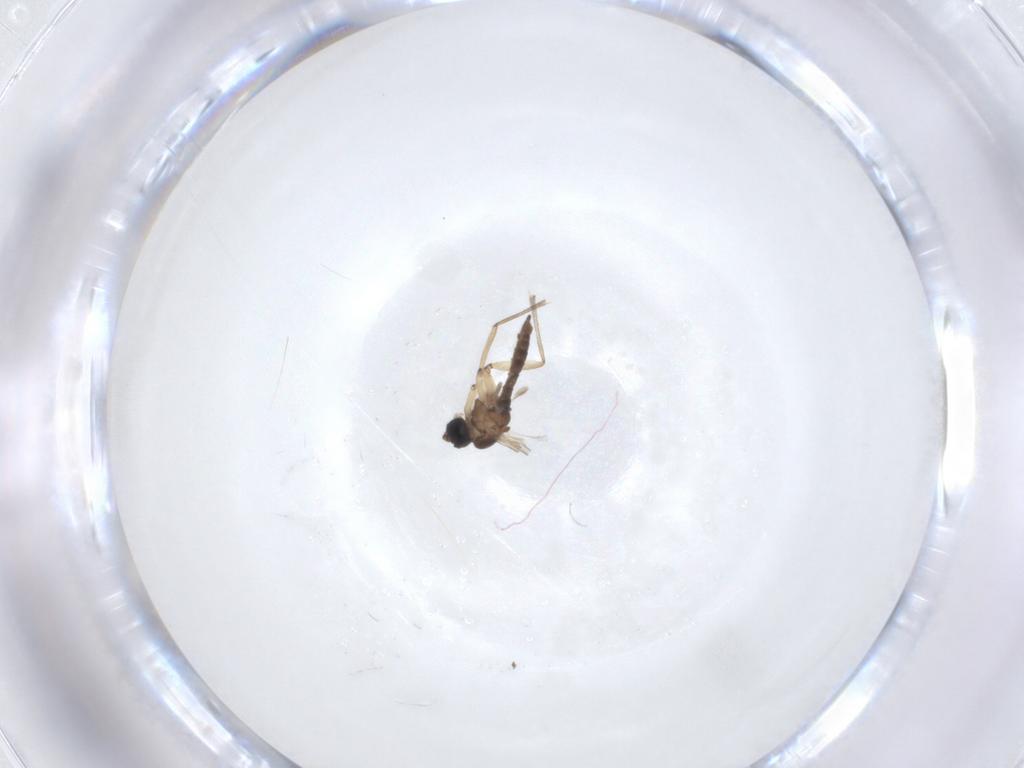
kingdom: Animalia
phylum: Arthropoda
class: Insecta
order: Diptera
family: Sciaridae
